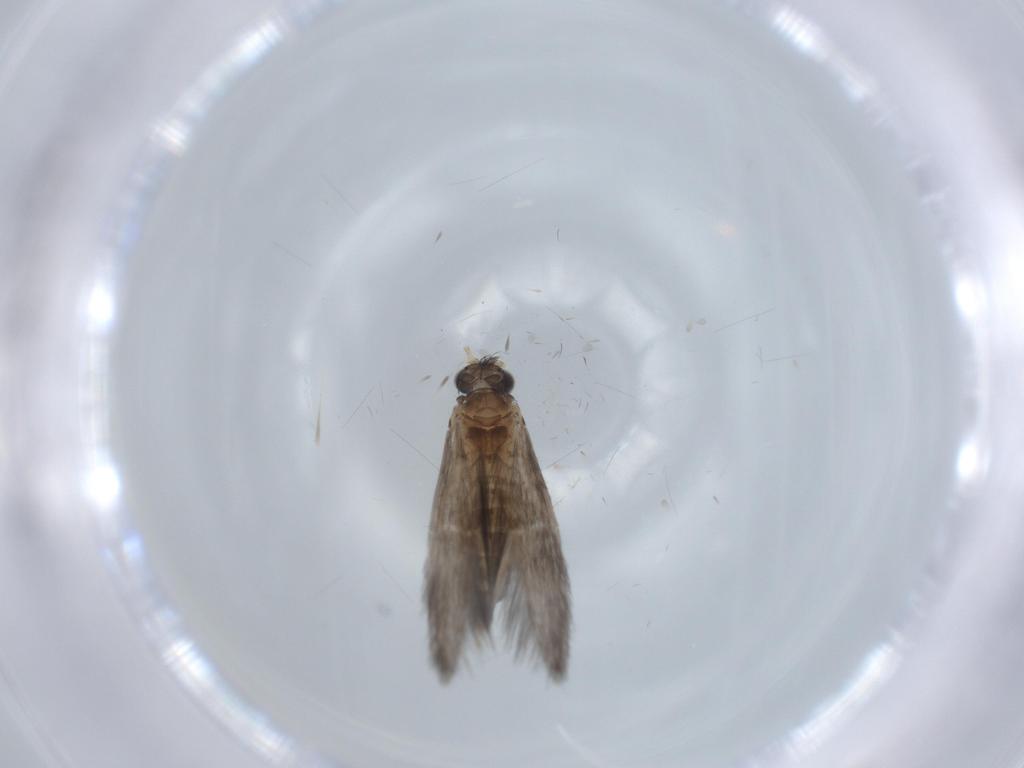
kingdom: Animalia
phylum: Arthropoda
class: Insecta
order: Trichoptera
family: Hydroptilidae
